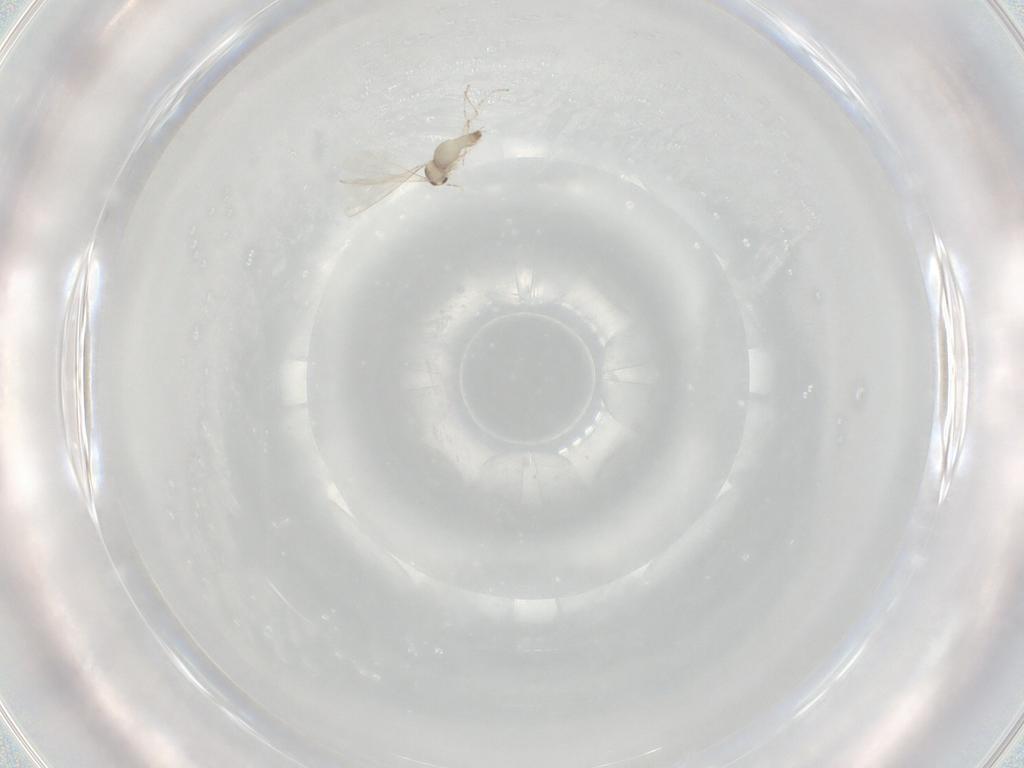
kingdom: Animalia
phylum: Arthropoda
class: Insecta
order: Diptera
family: Cecidomyiidae
